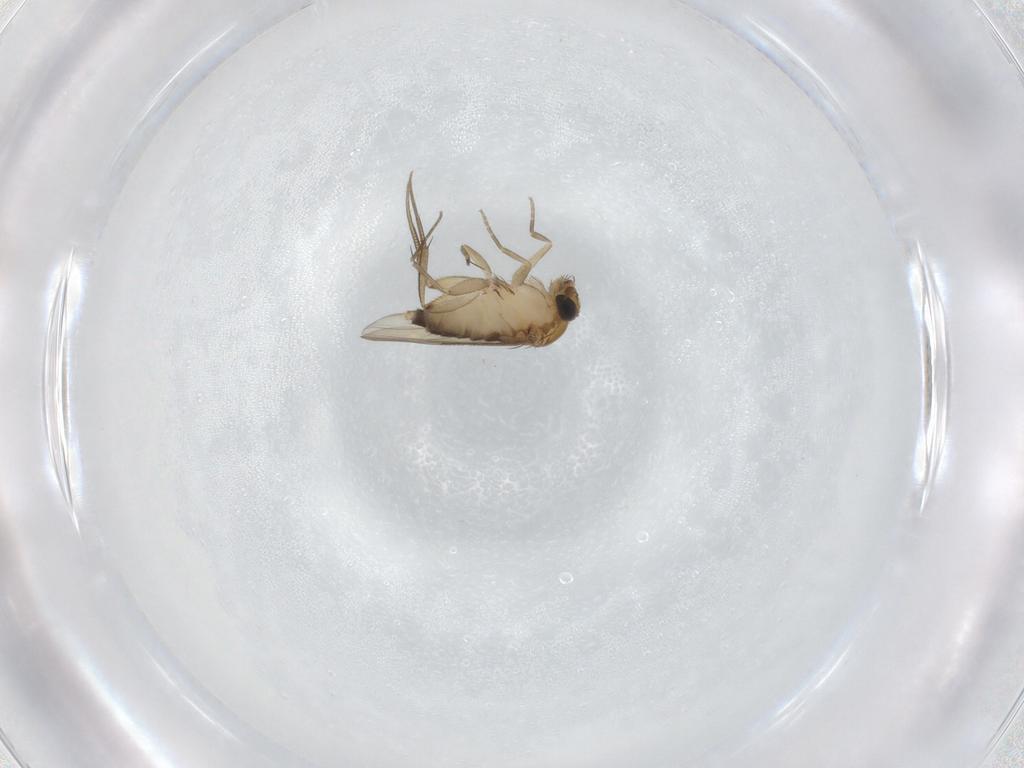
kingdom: Animalia
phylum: Arthropoda
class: Insecta
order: Diptera
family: Phoridae
